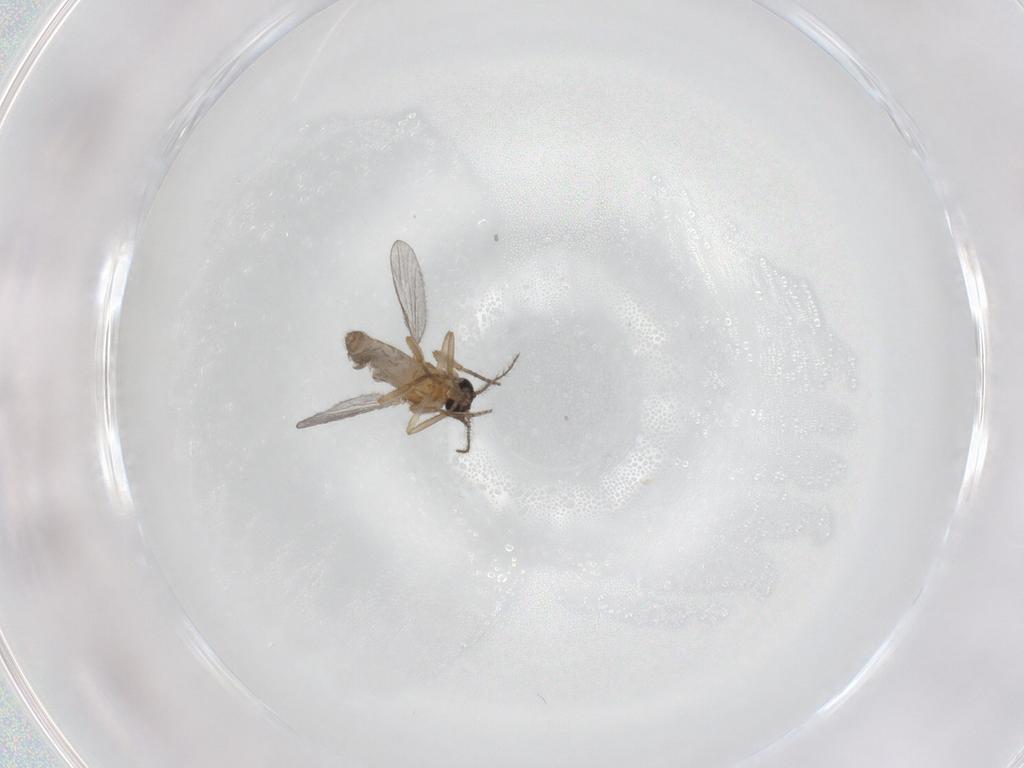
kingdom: Animalia
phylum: Arthropoda
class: Insecta
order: Diptera
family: Ceratopogonidae
